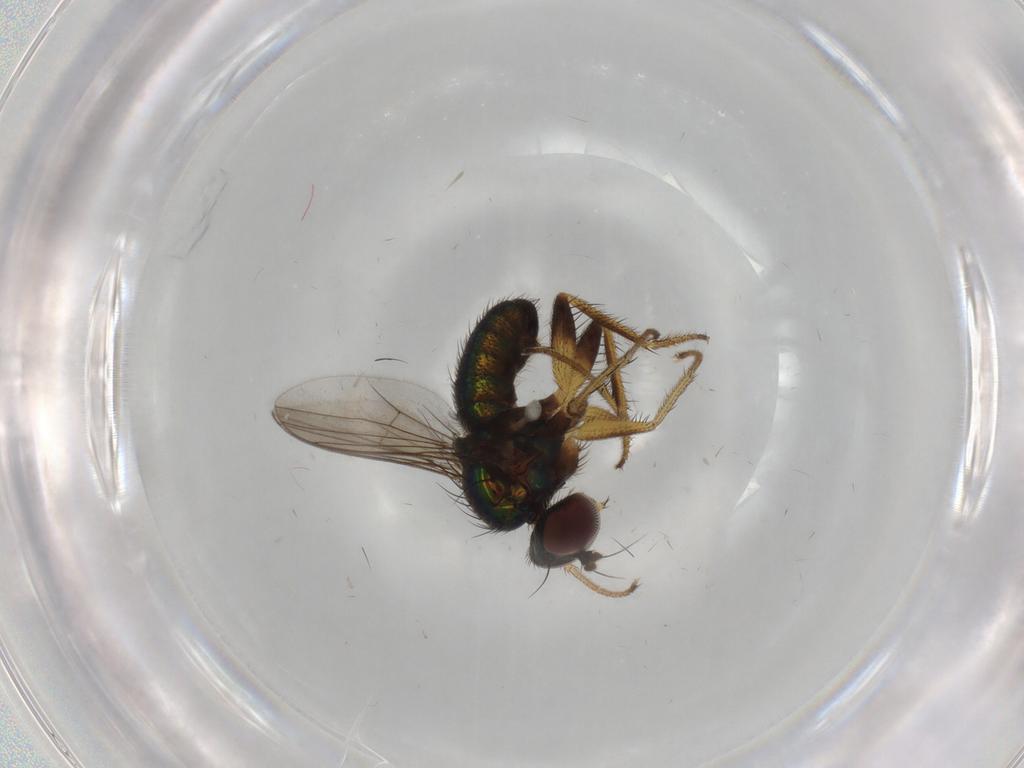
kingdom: Animalia
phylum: Arthropoda
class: Insecta
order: Diptera
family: Dolichopodidae
